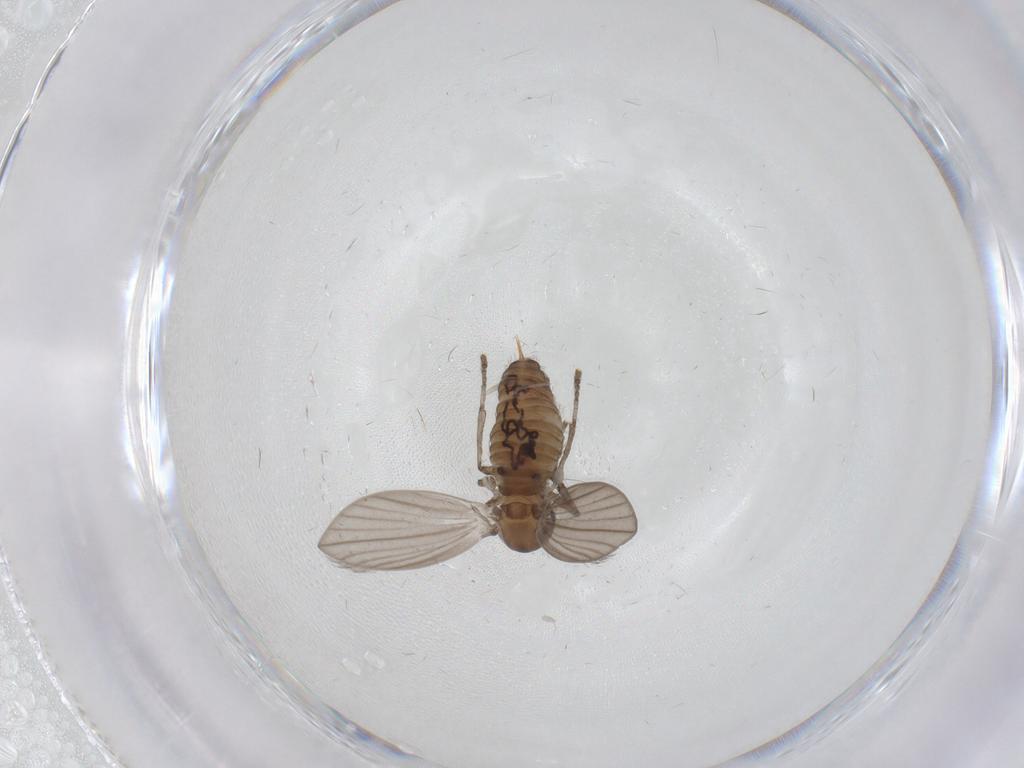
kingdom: Animalia
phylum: Arthropoda
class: Insecta
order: Diptera
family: Psychodidae
